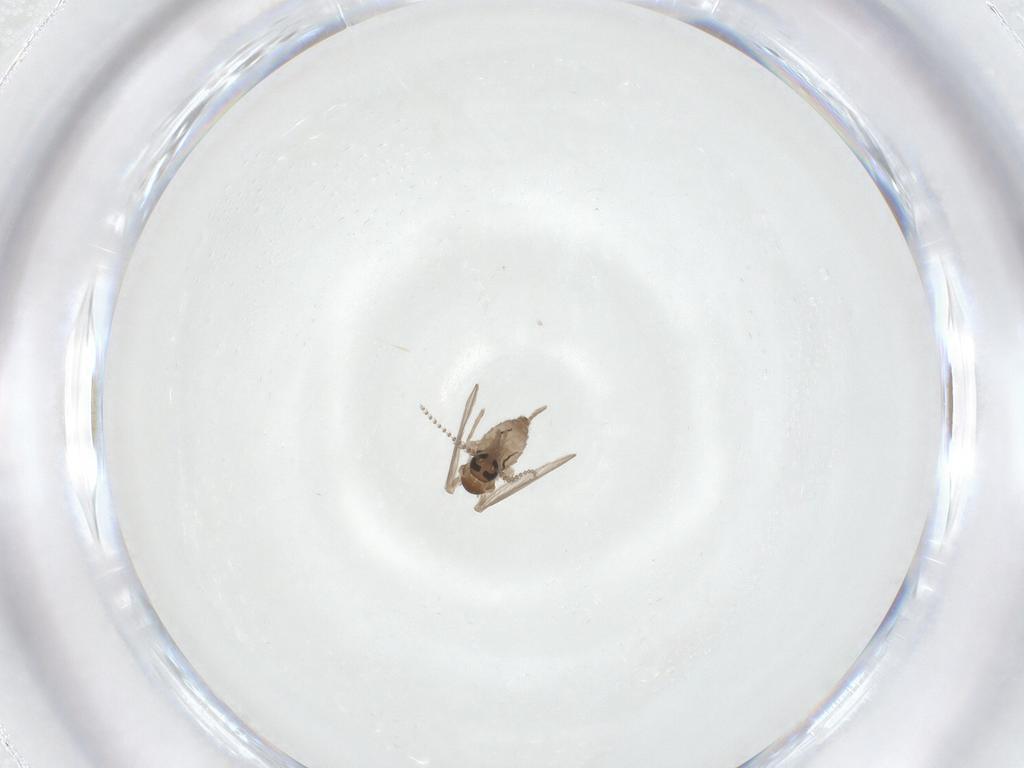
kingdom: Animalia
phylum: Arthropoda
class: Insecta
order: Diptera
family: Psychodidae
